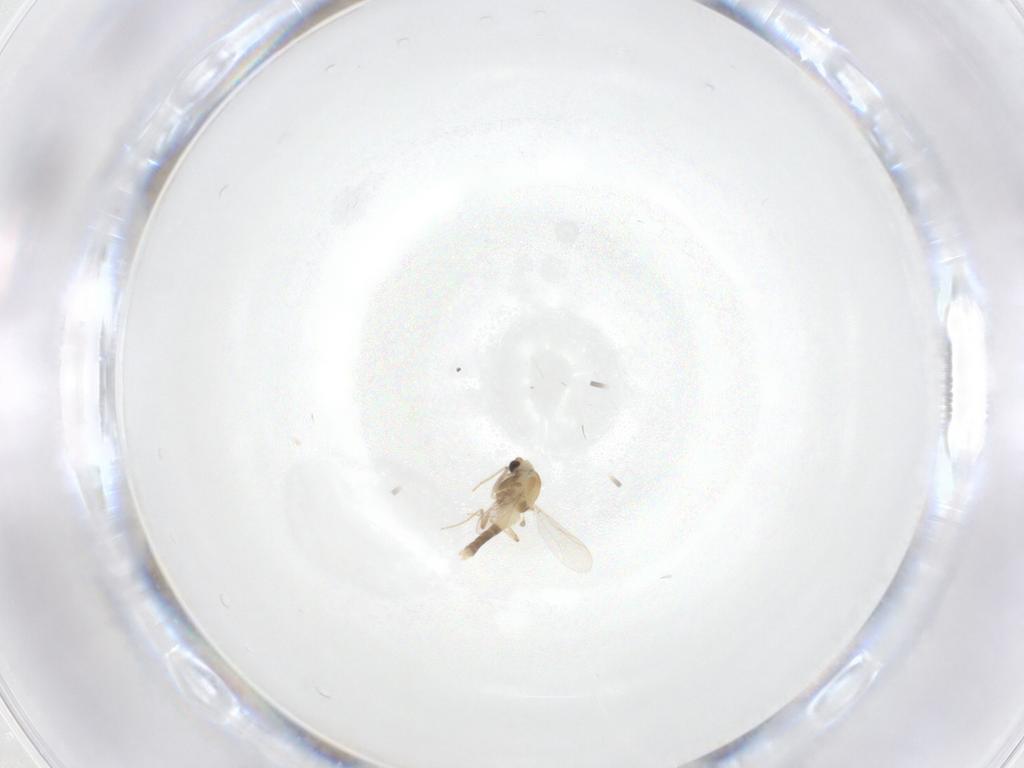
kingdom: Animalia
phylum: Arthropoda
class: Insecta
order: Diptera
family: Chironomidae
